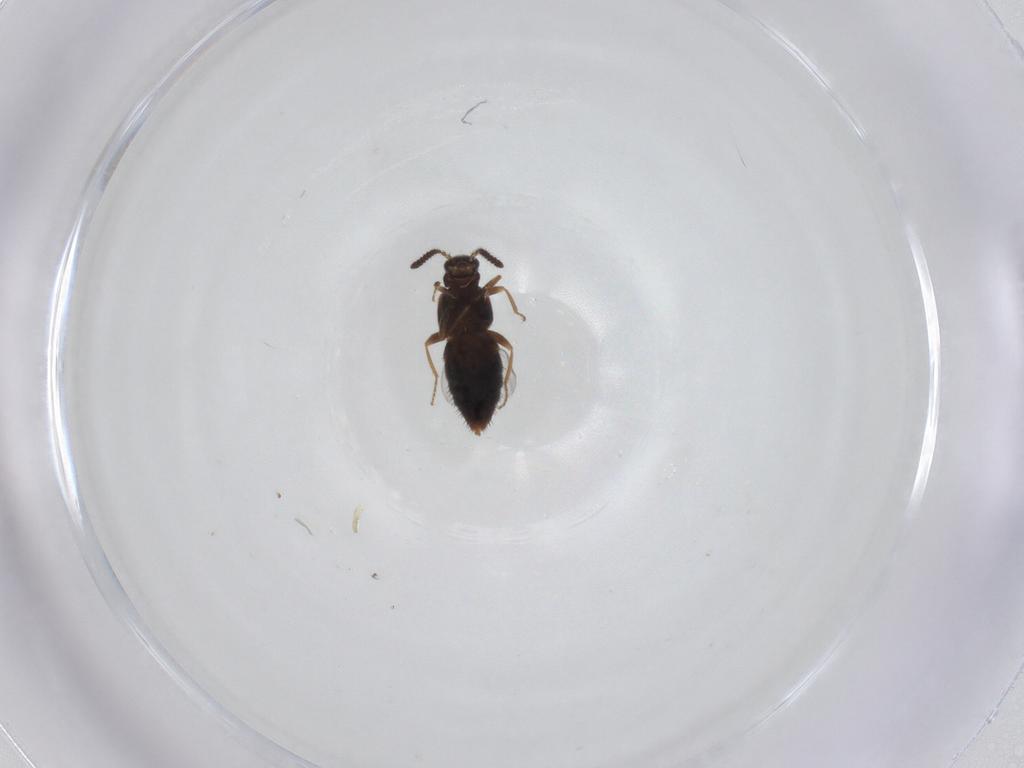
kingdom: Animalia
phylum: Arthropoda
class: Insecta
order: Coleoptera
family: Staphylinidae
